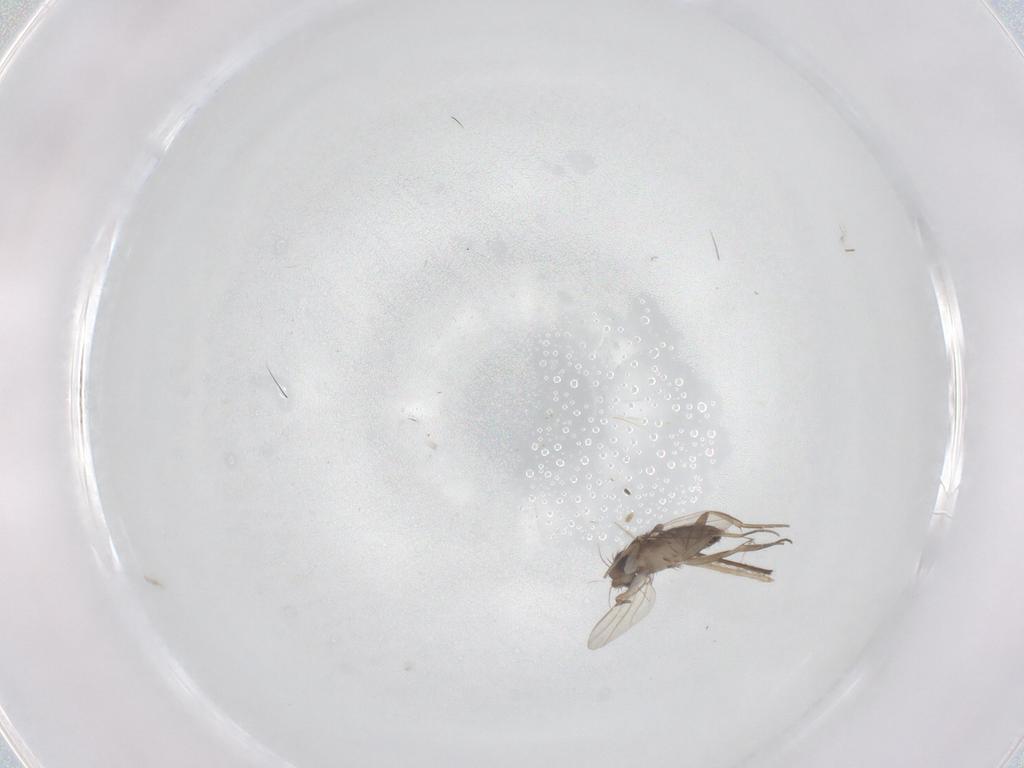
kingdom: Animalia
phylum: Arthropoda
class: Insecta
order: Diptera
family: Phoridae
